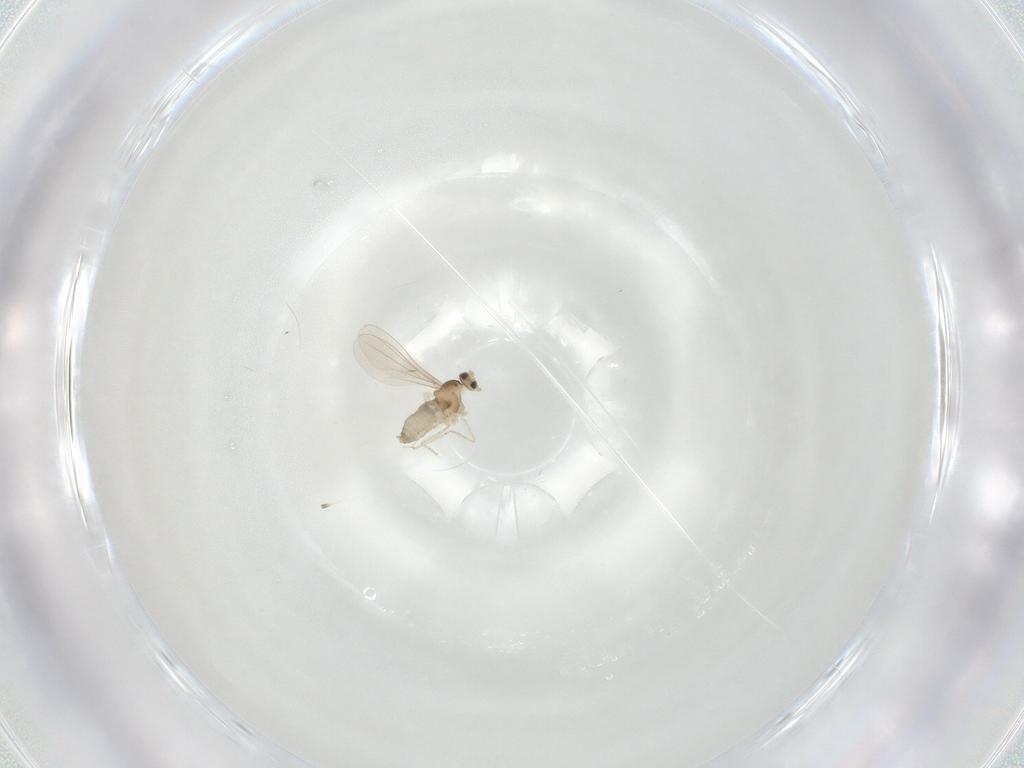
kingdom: Animalia
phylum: Arthropoda
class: Insecta
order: Diptera
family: Cecidomyiidae
